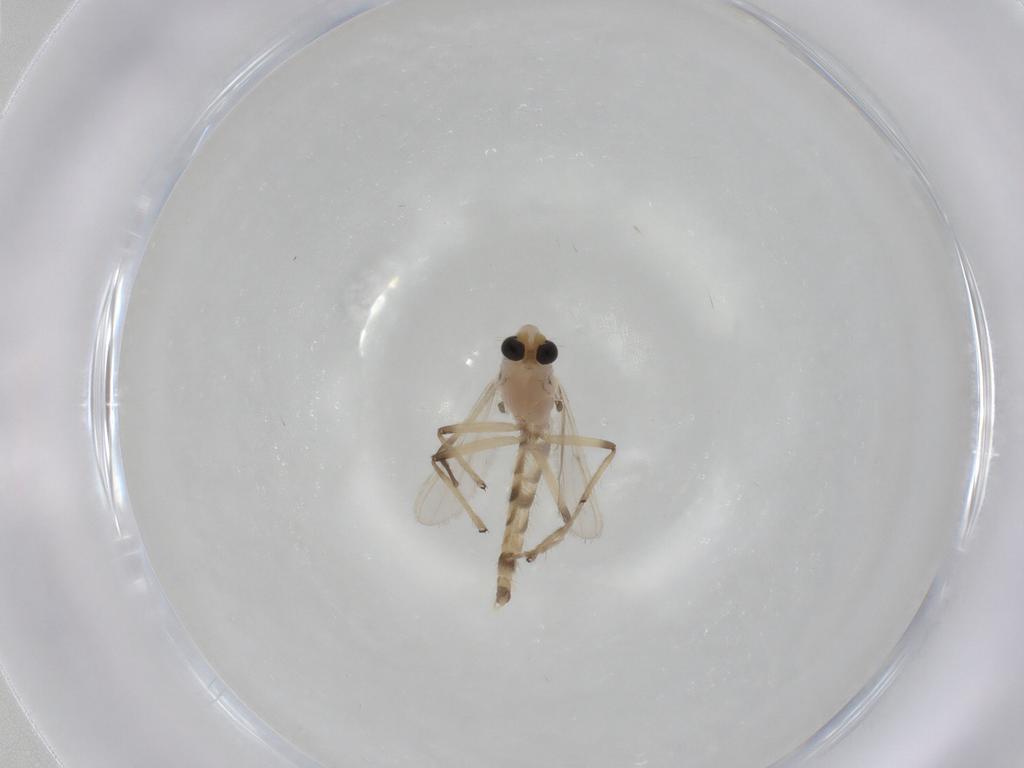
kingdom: Animalia
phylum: Arthropoda
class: Insecta
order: Diptera
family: Chironomidae
